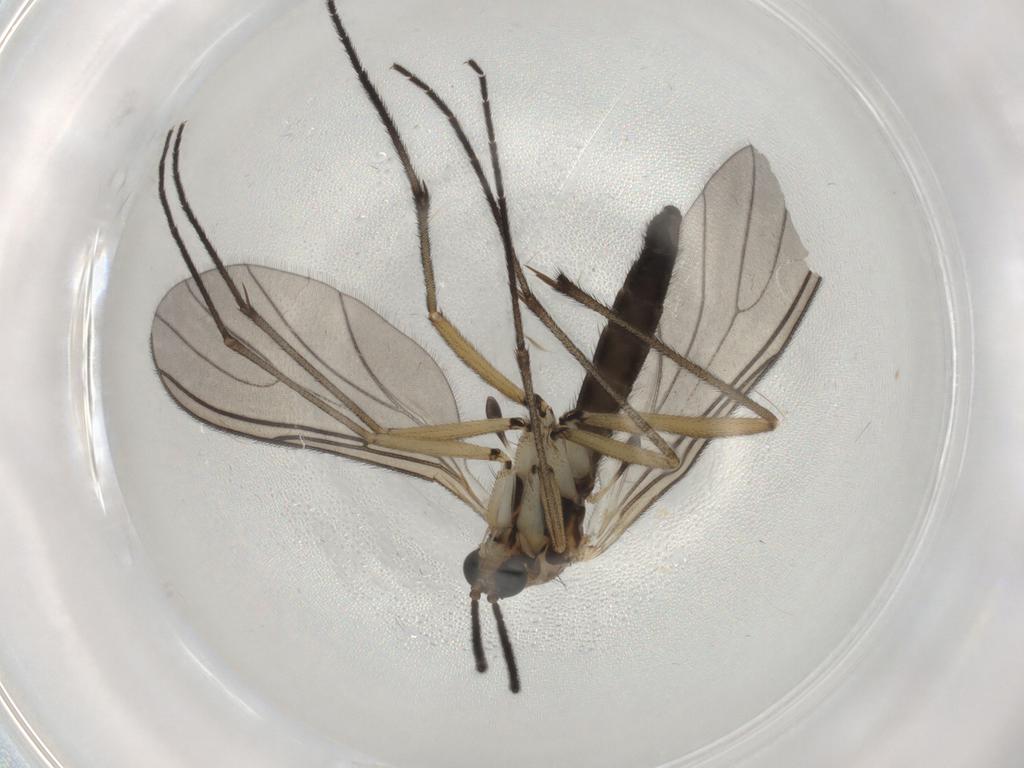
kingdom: Animalia
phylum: Arthropoda
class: Insecta
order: Diptera
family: Sciaridae
